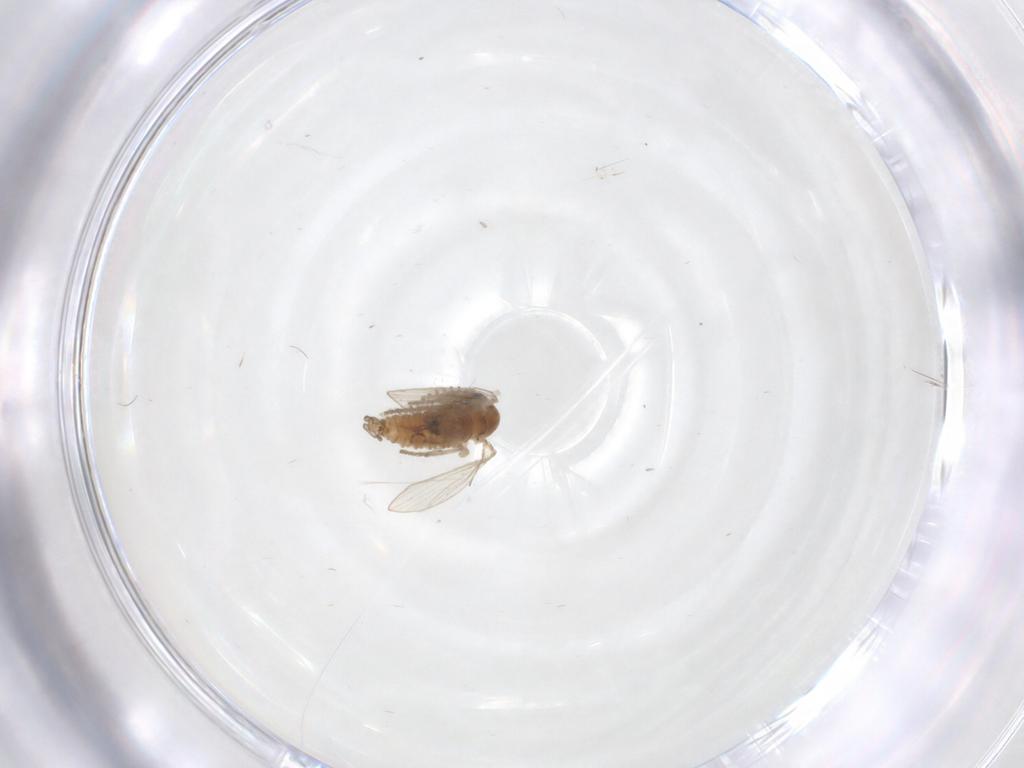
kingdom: Animalia
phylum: Arthropoda
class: Insecta
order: Diptera
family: Psychodidae
